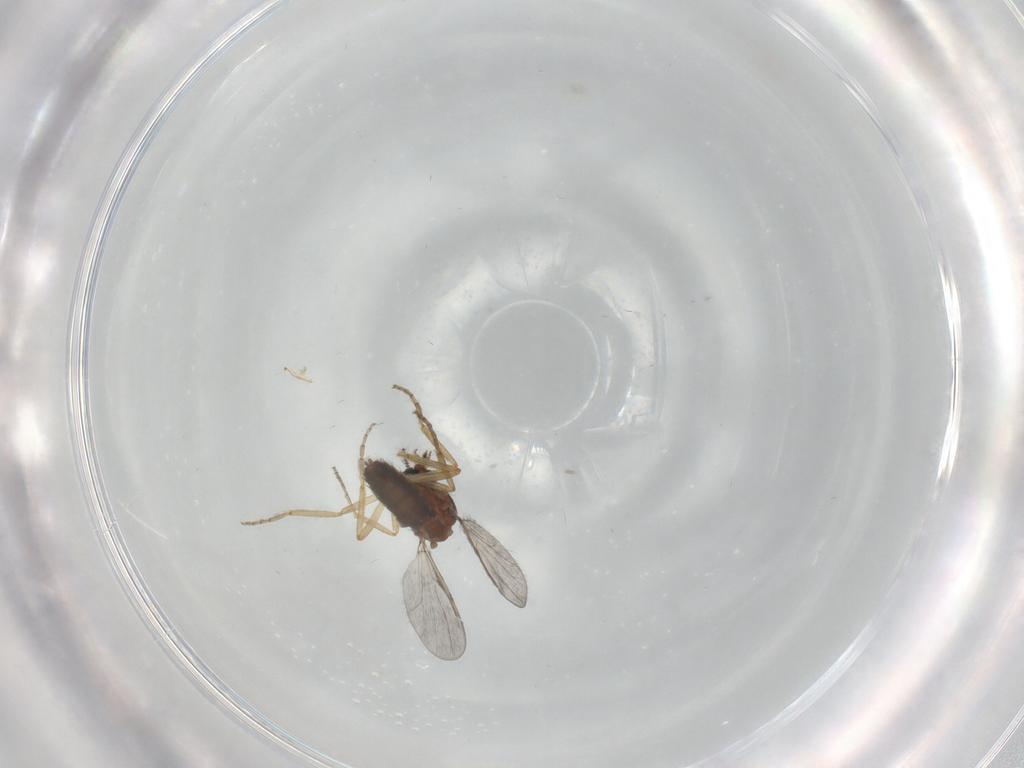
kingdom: Animalia
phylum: Arthropoda
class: Insecta
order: Diptera
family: Ceratopogonidae
